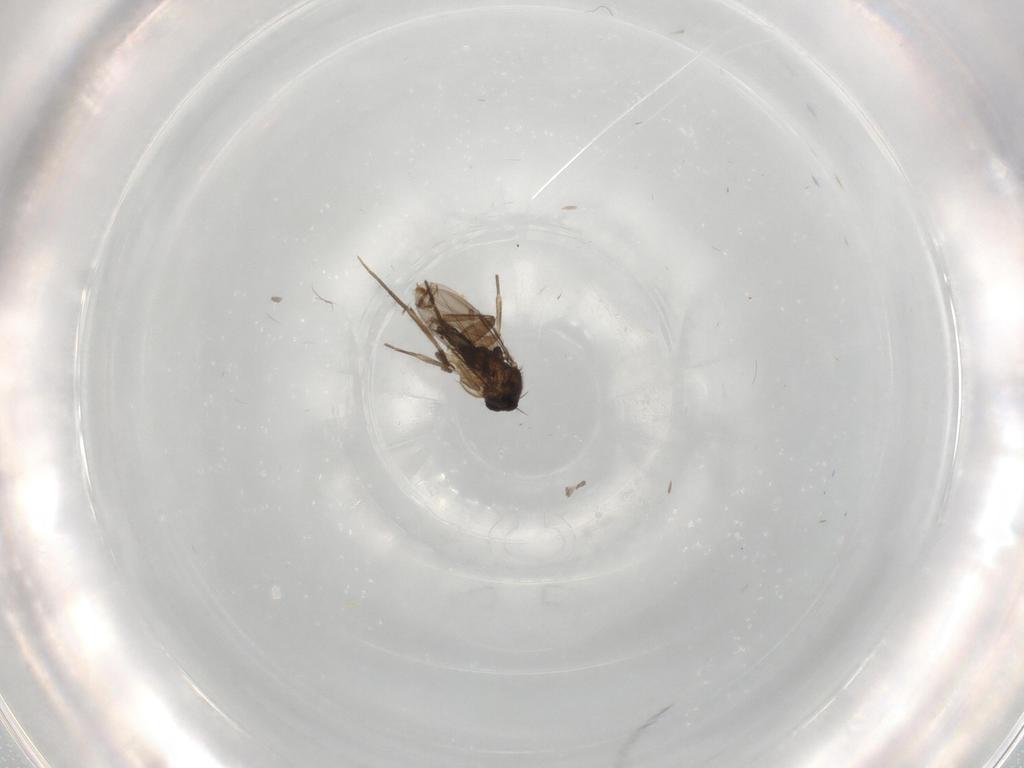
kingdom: Animalia
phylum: Arthropoda
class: Insecta
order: Diptera
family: Phoridae
